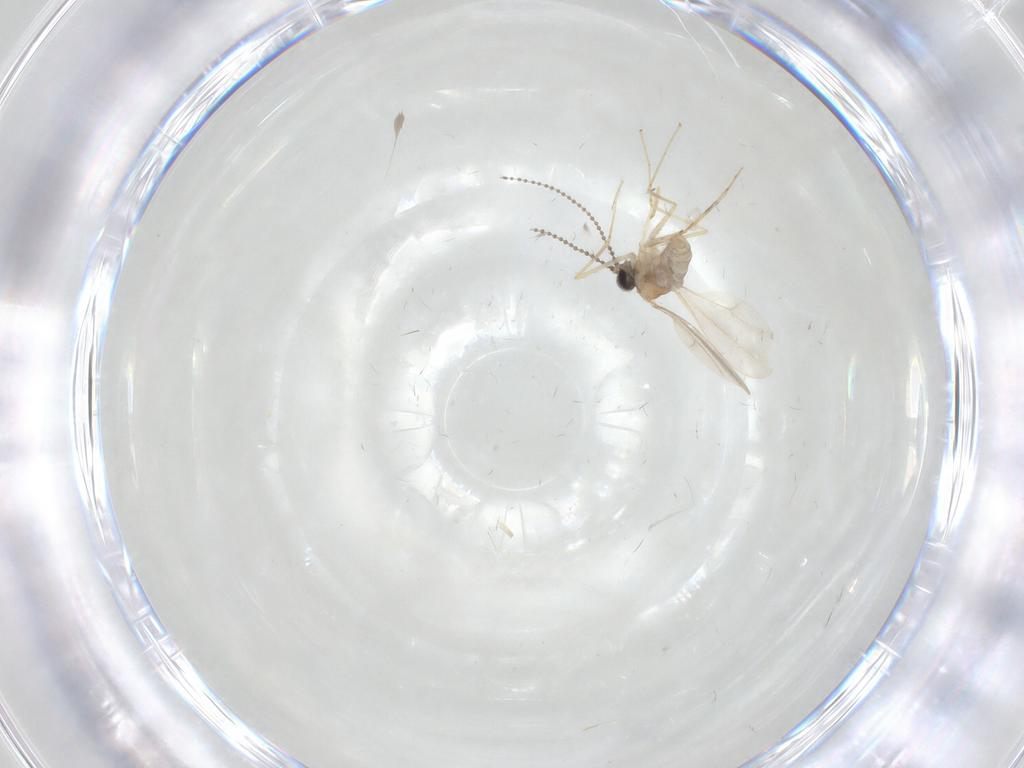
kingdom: Animalia
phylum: Arthropoda
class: Insecta
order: Diptera
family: Cecidomyiidae
